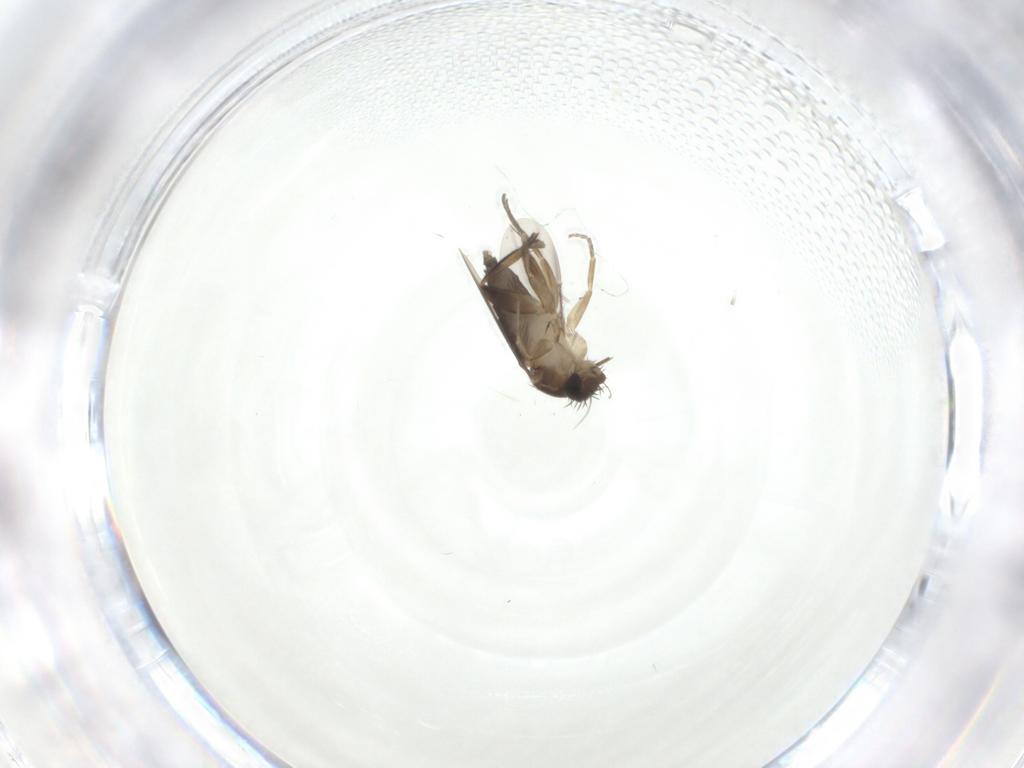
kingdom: Animalia
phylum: Arthropoda
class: Insecta
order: Diptera
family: Phoridae
